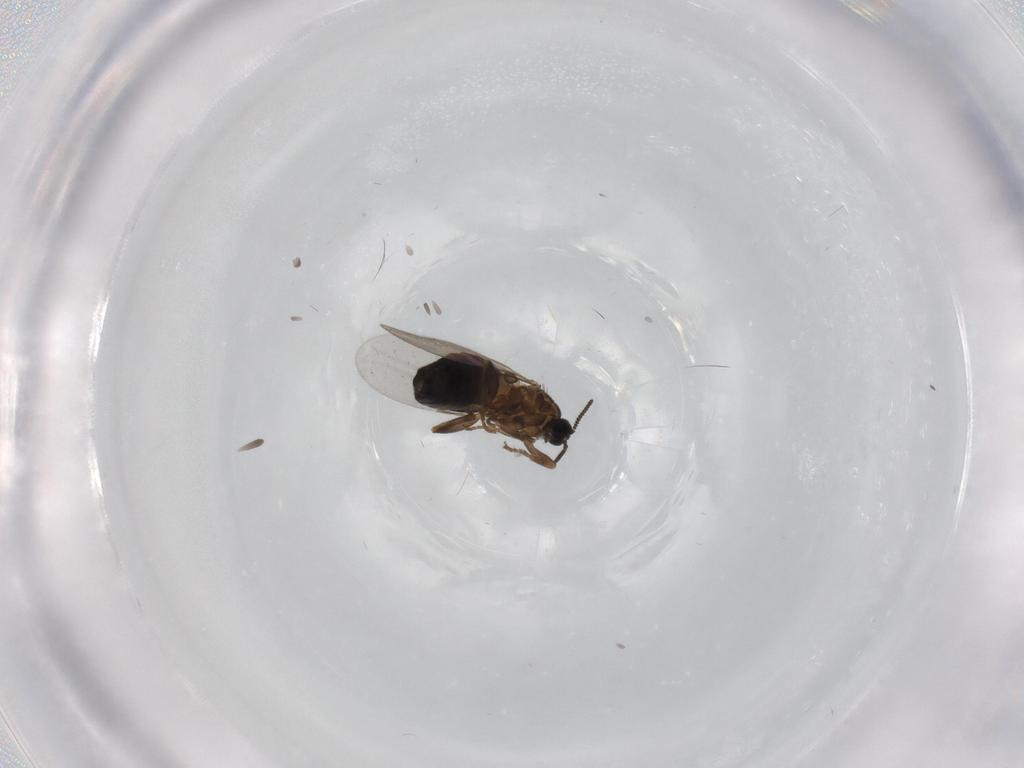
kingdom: Animalia
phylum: Arthropoda
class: Insecta
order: Diptera
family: Scatopsidae
